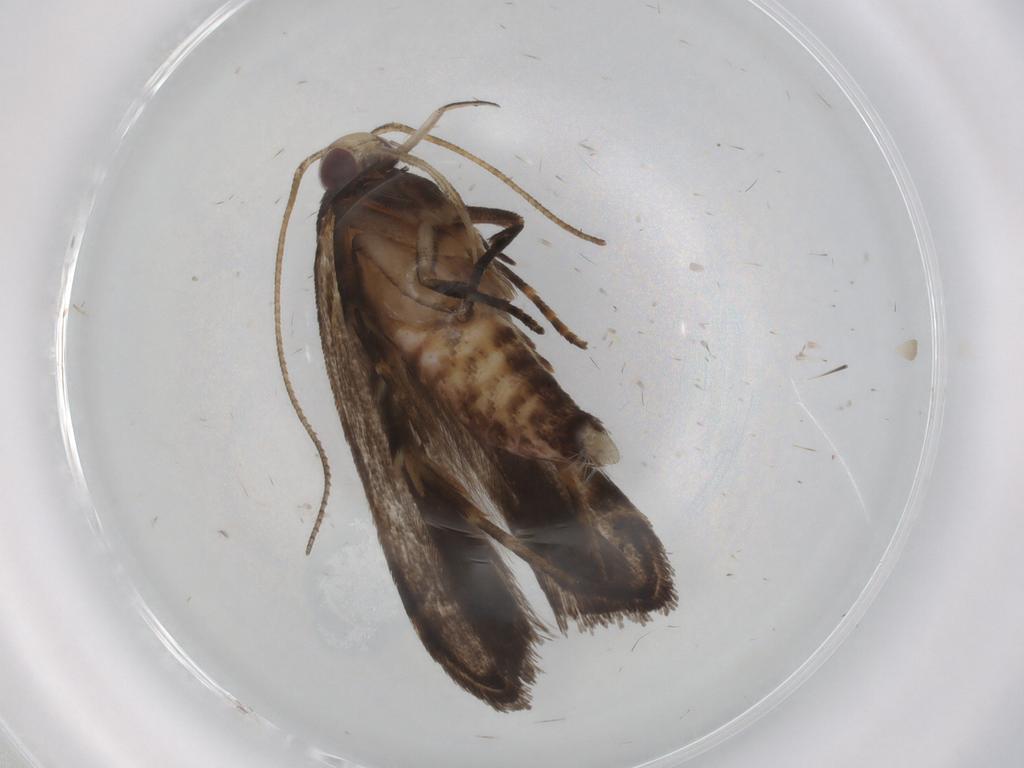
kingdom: Animalia
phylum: Arthropoda
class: Insecta
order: Lepidoptera
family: Gelechiidae
